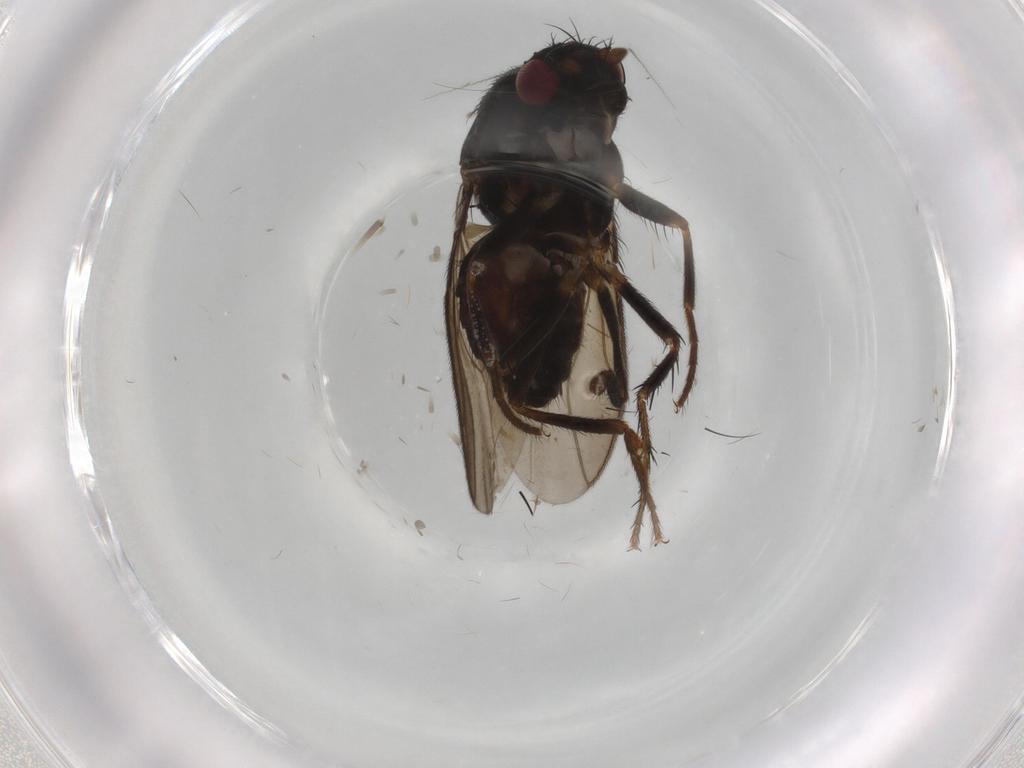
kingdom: Animalia
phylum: Arthropoda
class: Insecta
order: Diptera
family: Sphaeroceridae
